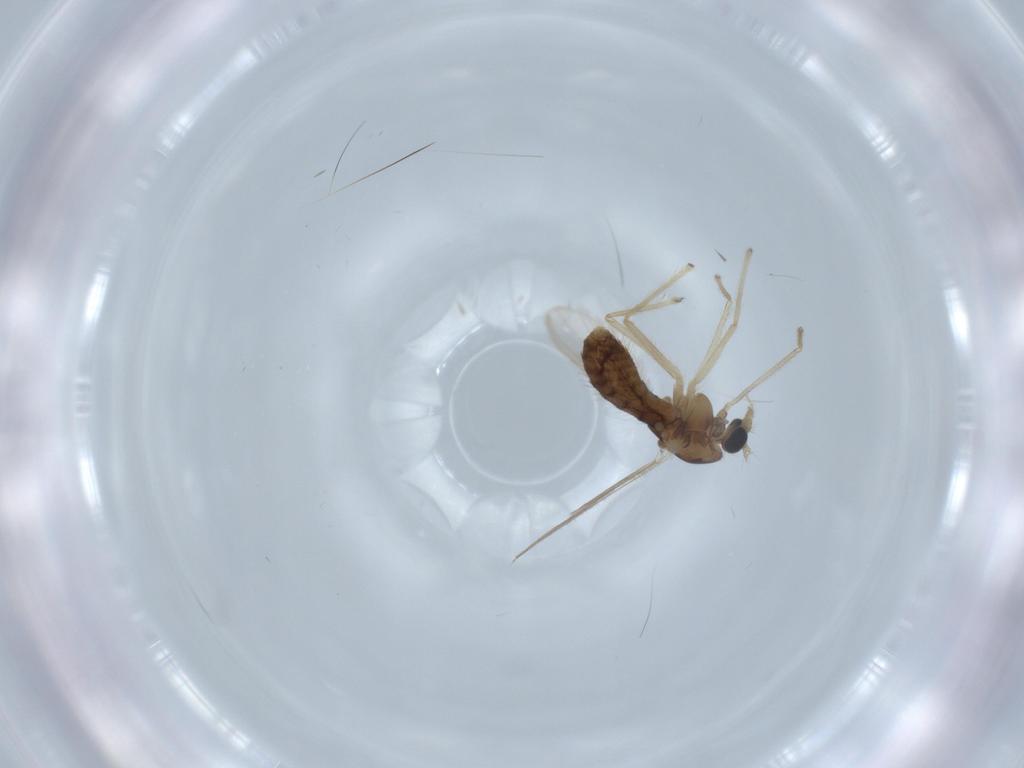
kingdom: Animalia
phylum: Arthropoda
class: Insecta
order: Diptera
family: Chironomidae
